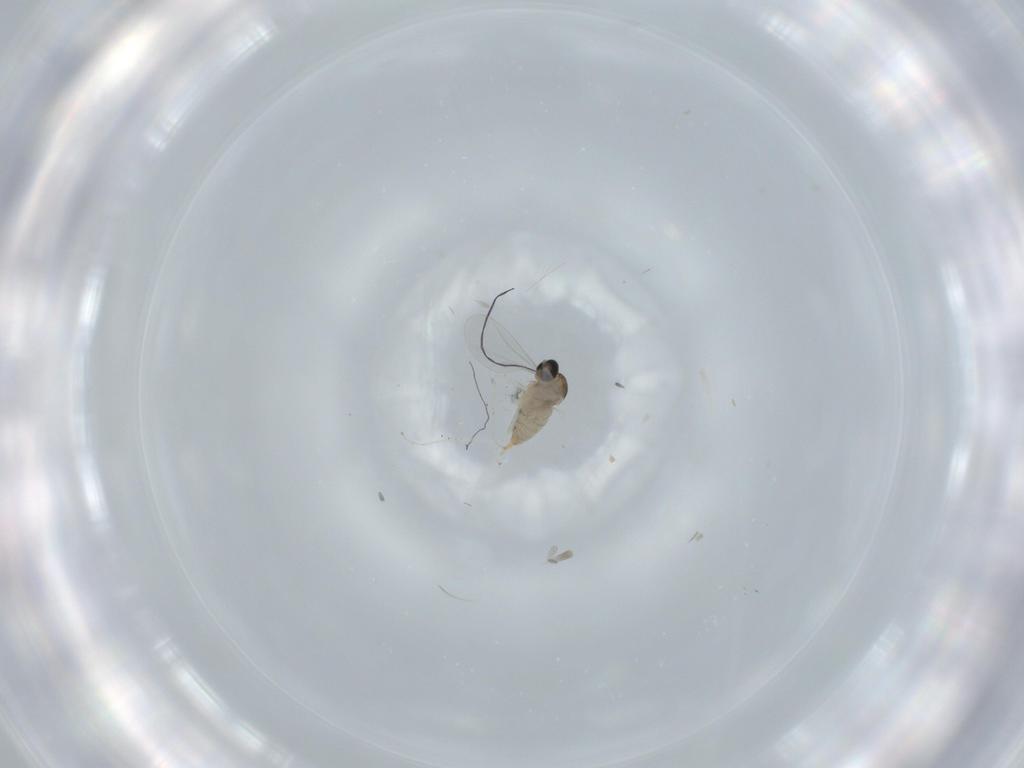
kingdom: Animalia
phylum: Arthropoda
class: Insecta
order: Diptera
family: Cecidomyiidae
